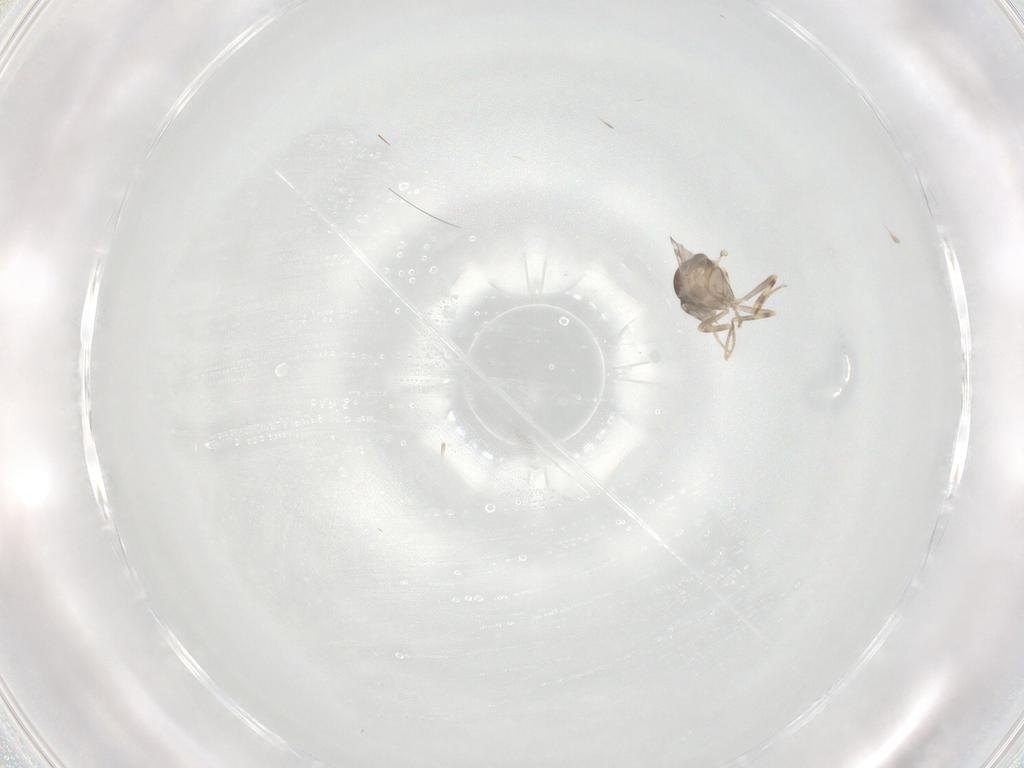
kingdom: Animalia
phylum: Arthropoda
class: Insecta
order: Diptera
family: Ceratopogonidae
